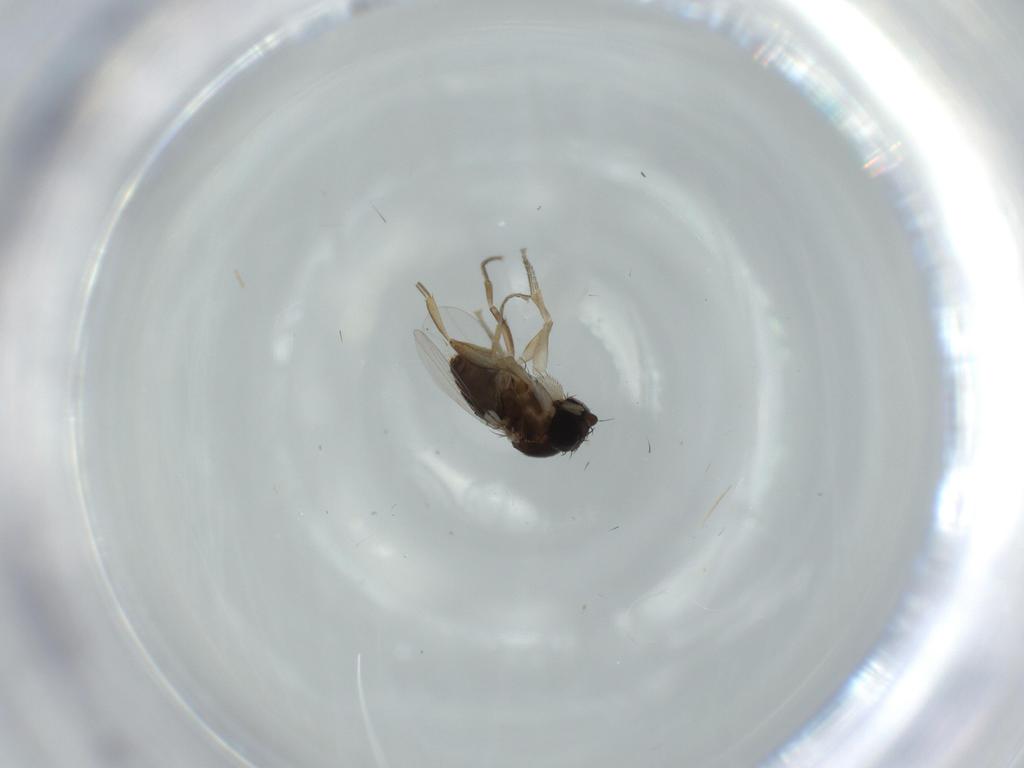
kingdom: Animalia
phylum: Arthropoda
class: Insecta
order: Diptera
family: Phoridae
